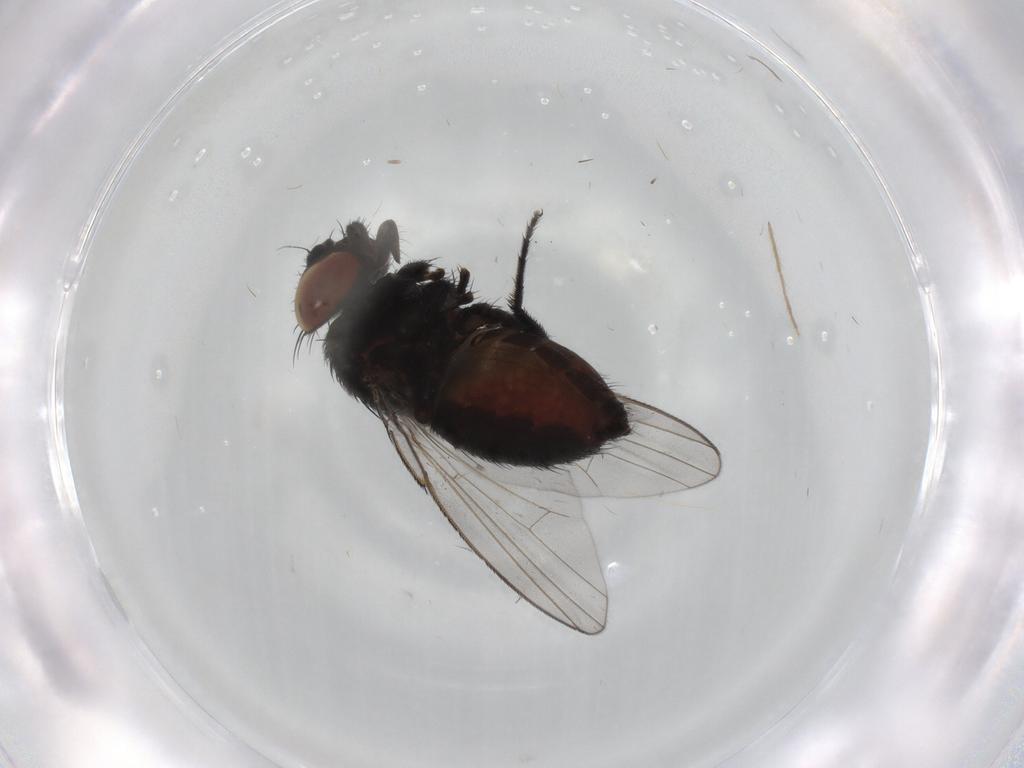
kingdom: Animalia
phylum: Arthropoda
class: Insecta
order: Diptera
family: Milichiidae
